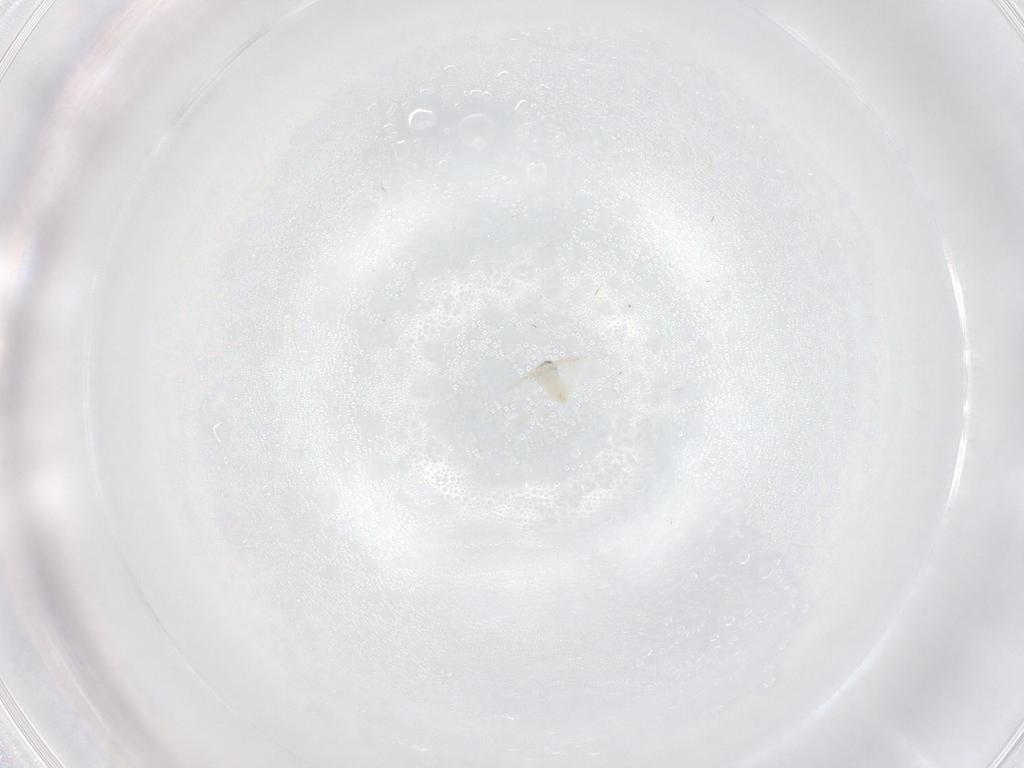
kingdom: Animalia
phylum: Arthropoda
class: Insecta
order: Diptera
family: Cecidomyiidae
